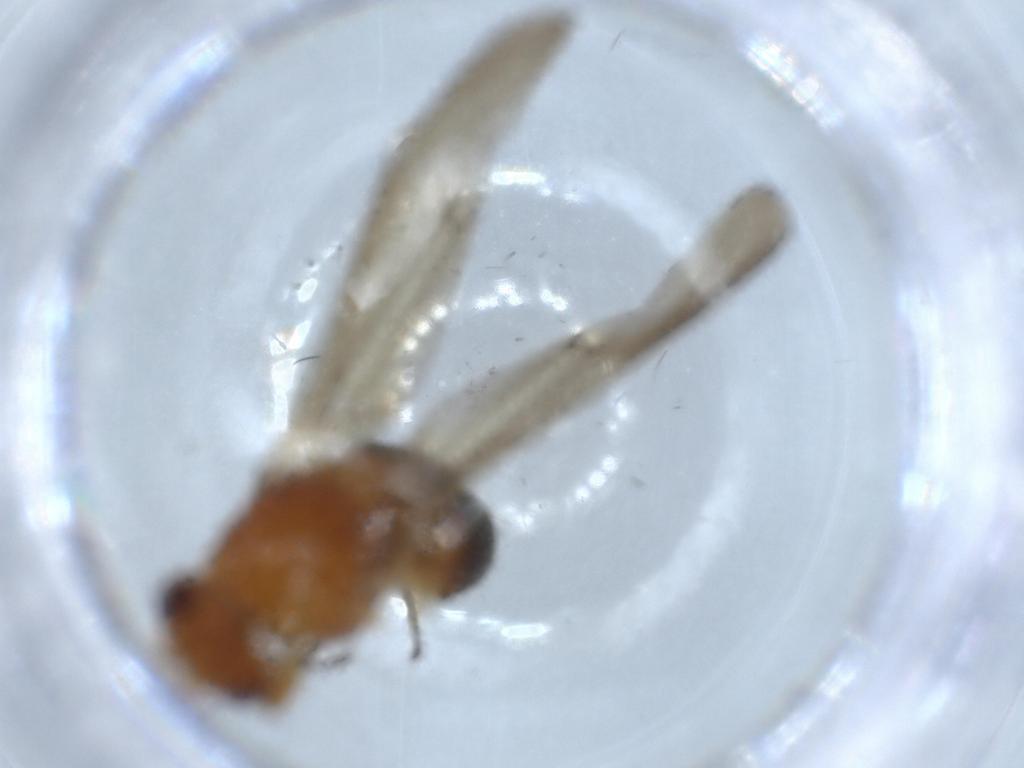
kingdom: Animalia
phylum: Arthropoda
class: Insecta
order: Diptera
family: Lauxaniidae
